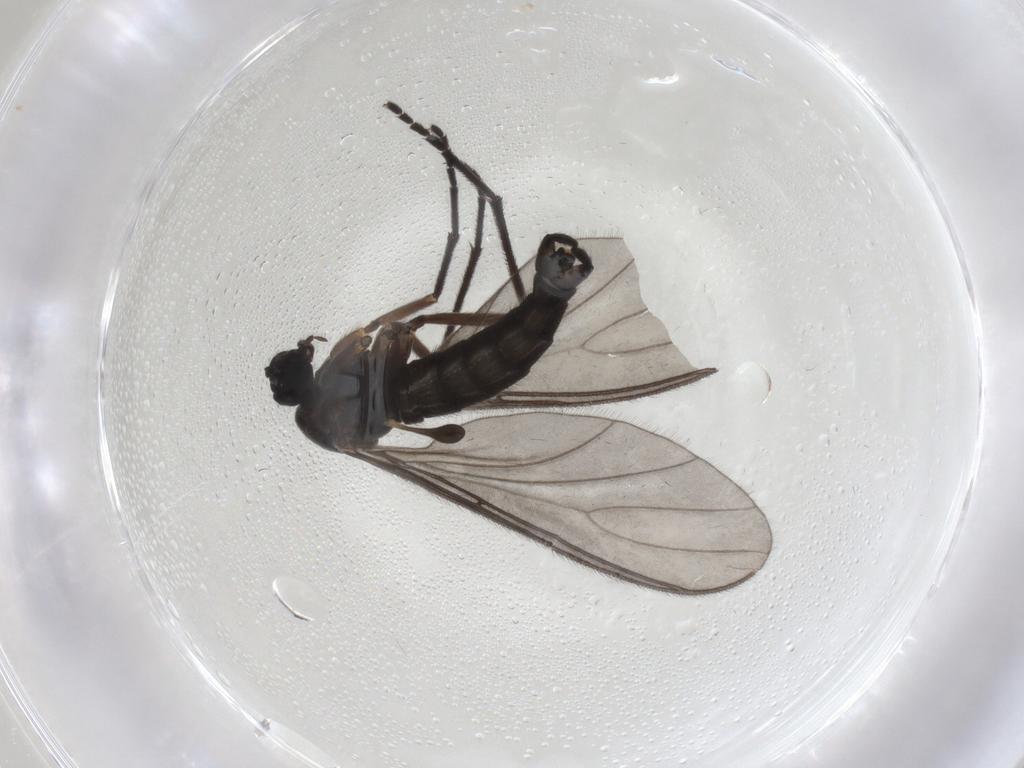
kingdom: Animalia
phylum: Arthropoda
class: Insecta
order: Diptera
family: Sciaridae
